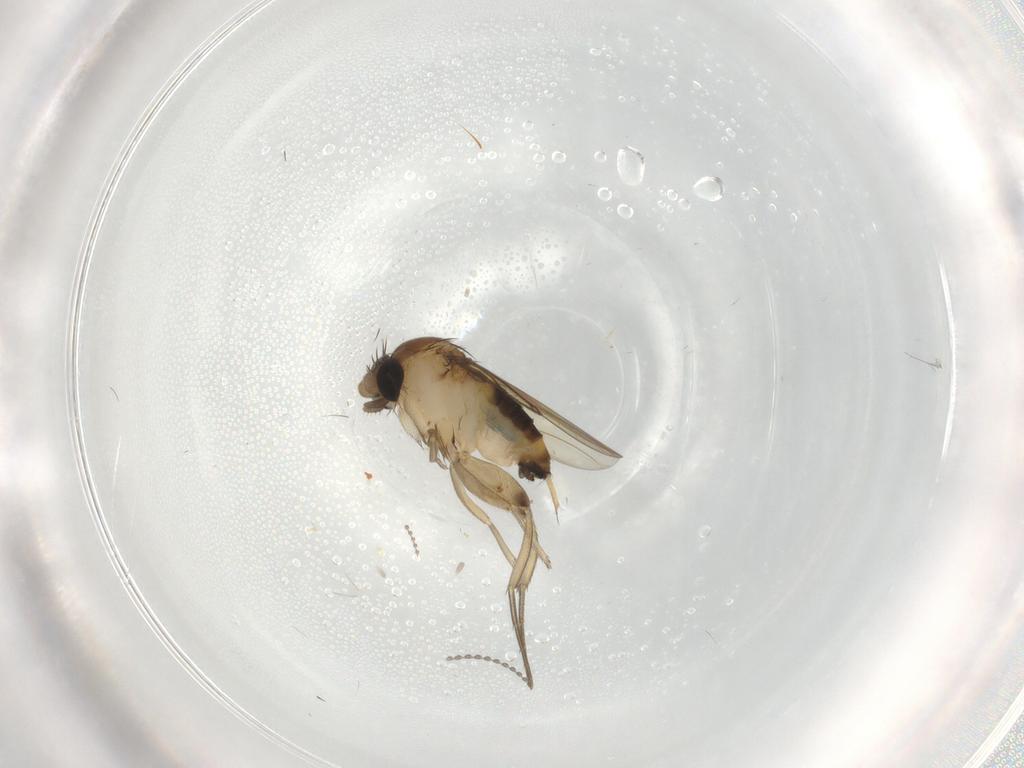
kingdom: Animalia
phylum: Arthropoda
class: Insecta
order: Diptera
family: Phoridae
